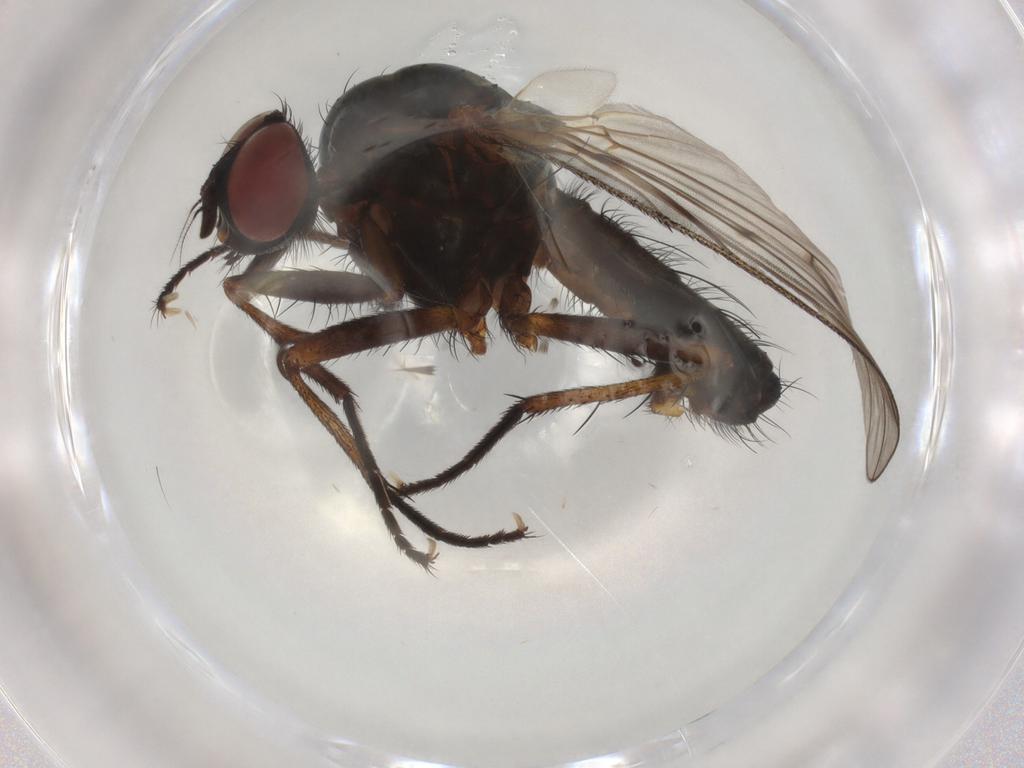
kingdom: Animalia
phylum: Arthropoda
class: Insecta
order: Diptera
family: Anthomyiidae
